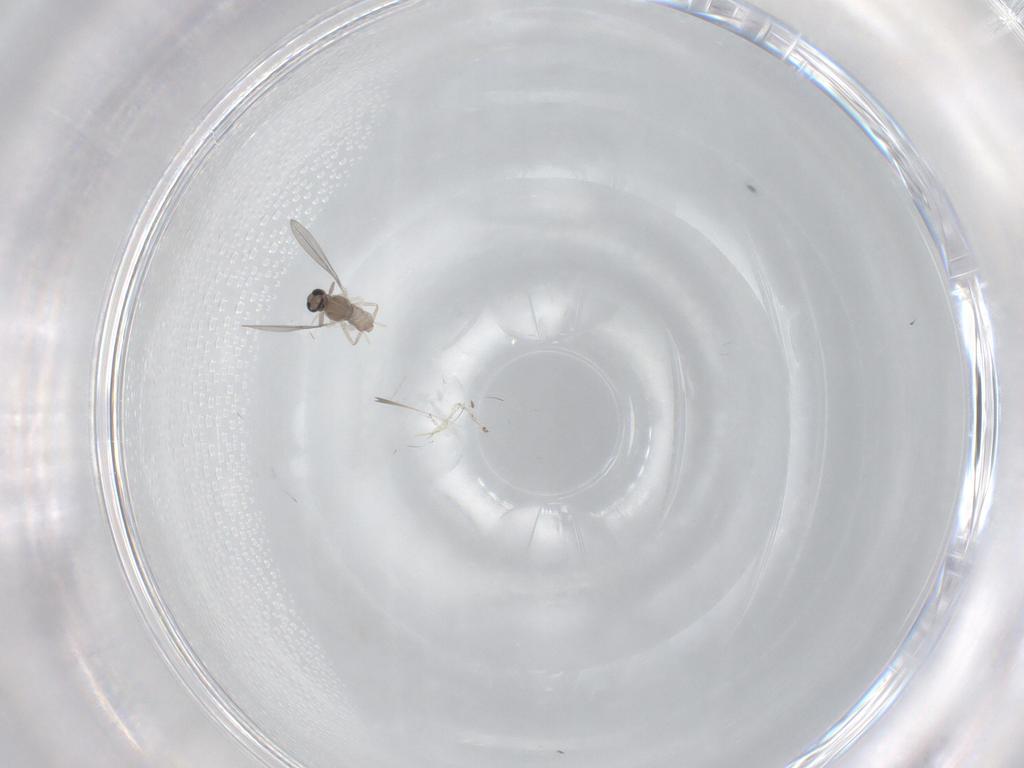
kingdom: Animalia
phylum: Arthropoda
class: Insecta
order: Diptera
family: Cecidomyiidae
